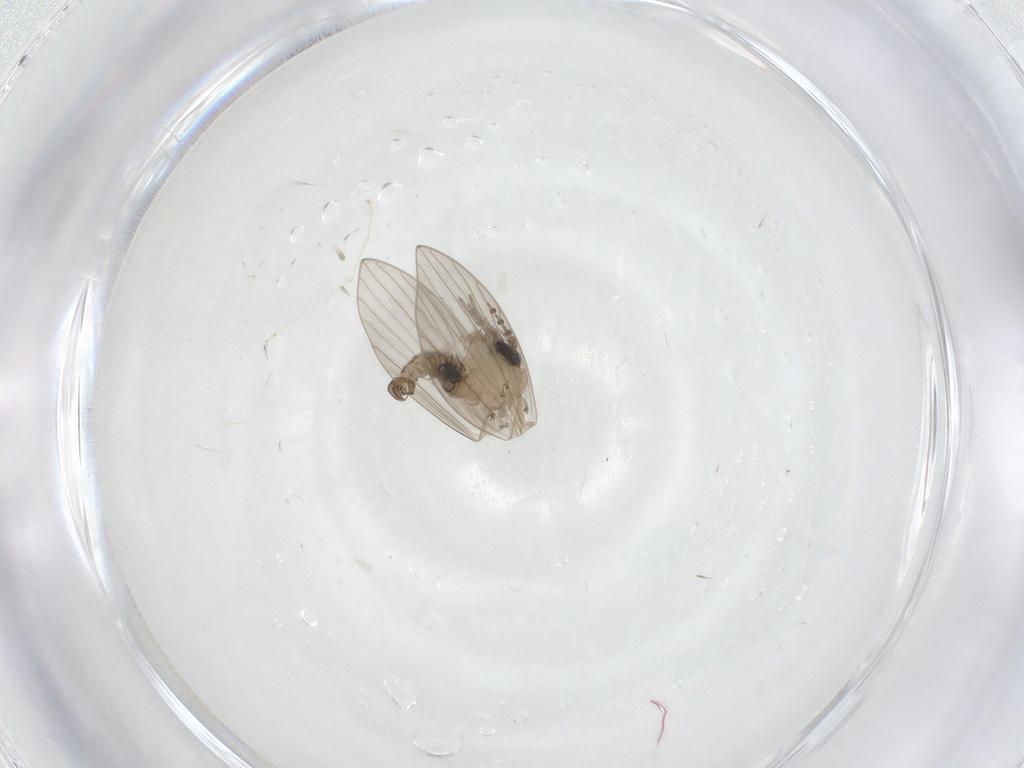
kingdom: Animalia
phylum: Arthropoda
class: Insecta
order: Diptera
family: Psychodidae
